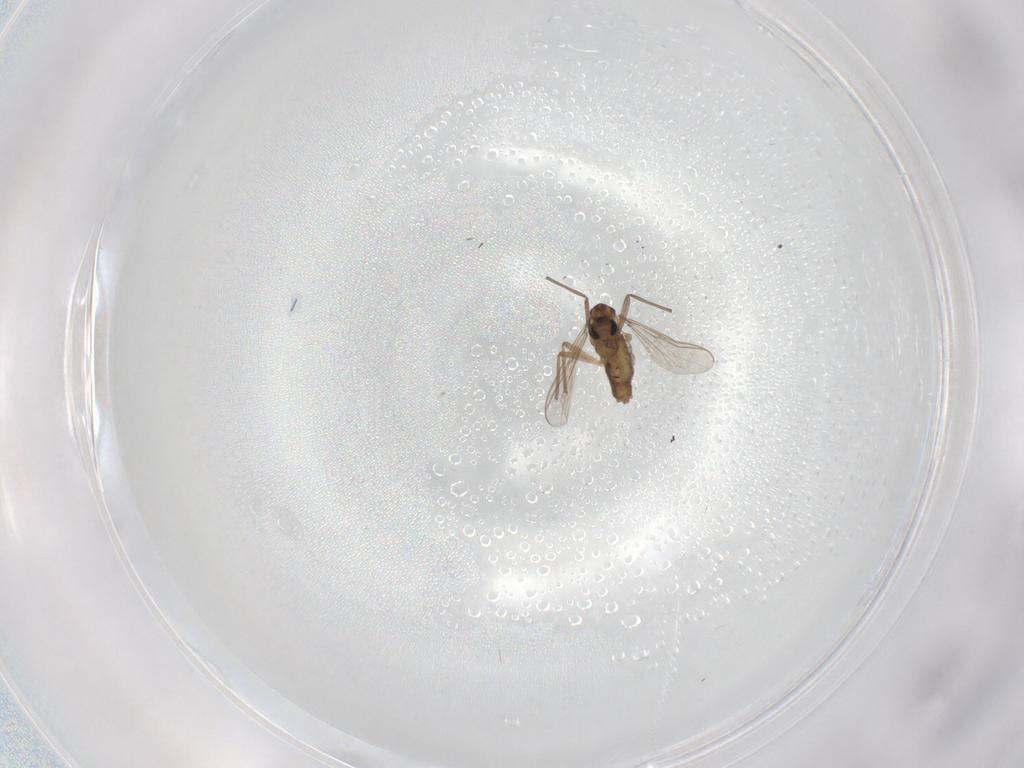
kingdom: Animalia
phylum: Arthropoda
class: Insecta
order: Diptera
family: Chironomidae
